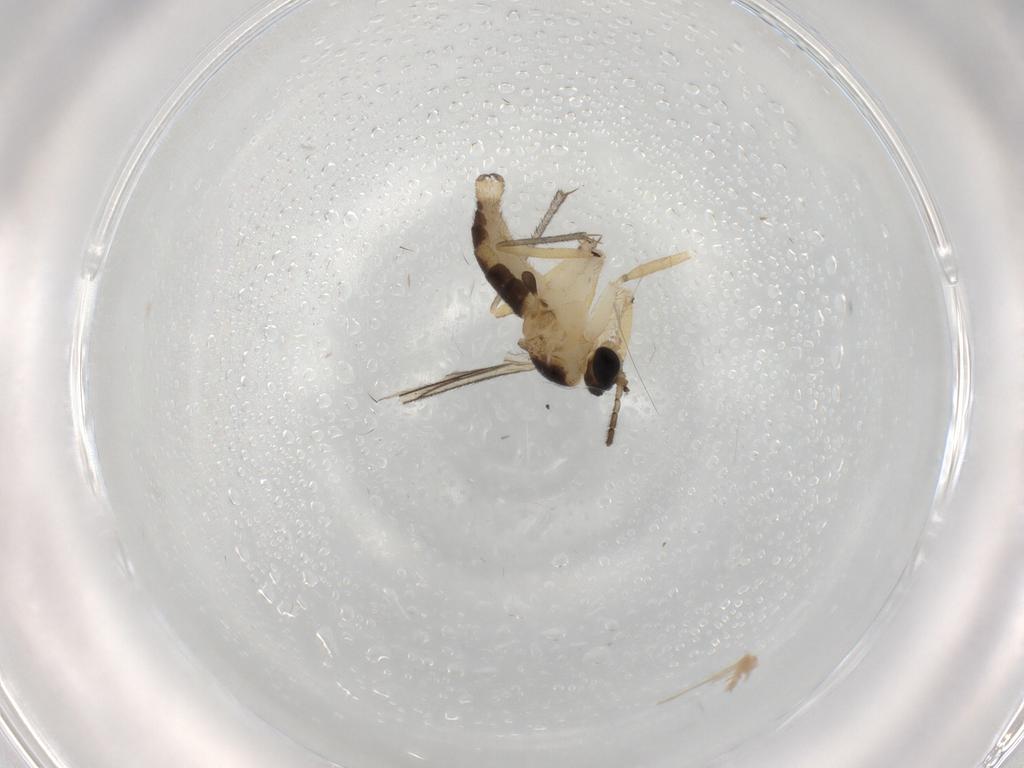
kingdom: Animalia
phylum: Arthropoda
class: Insecta
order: Diptera
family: Sciaridae
